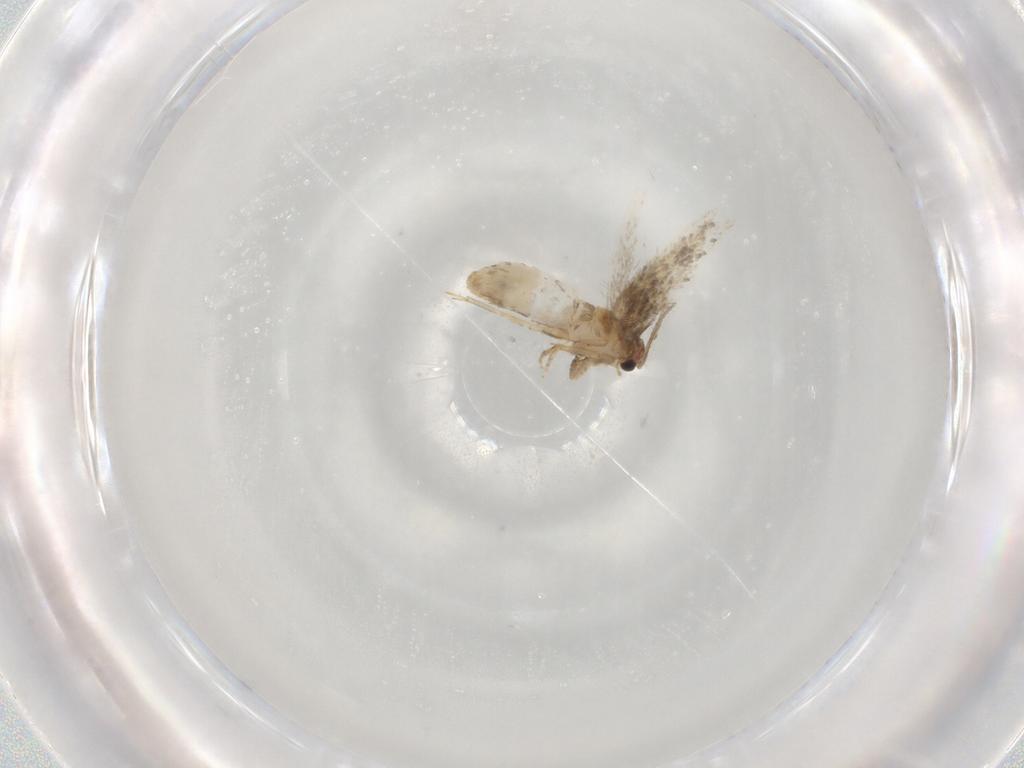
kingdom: Animalia
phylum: Arthropoda
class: Insecta
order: Lepidoptera
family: Nepticulidae
